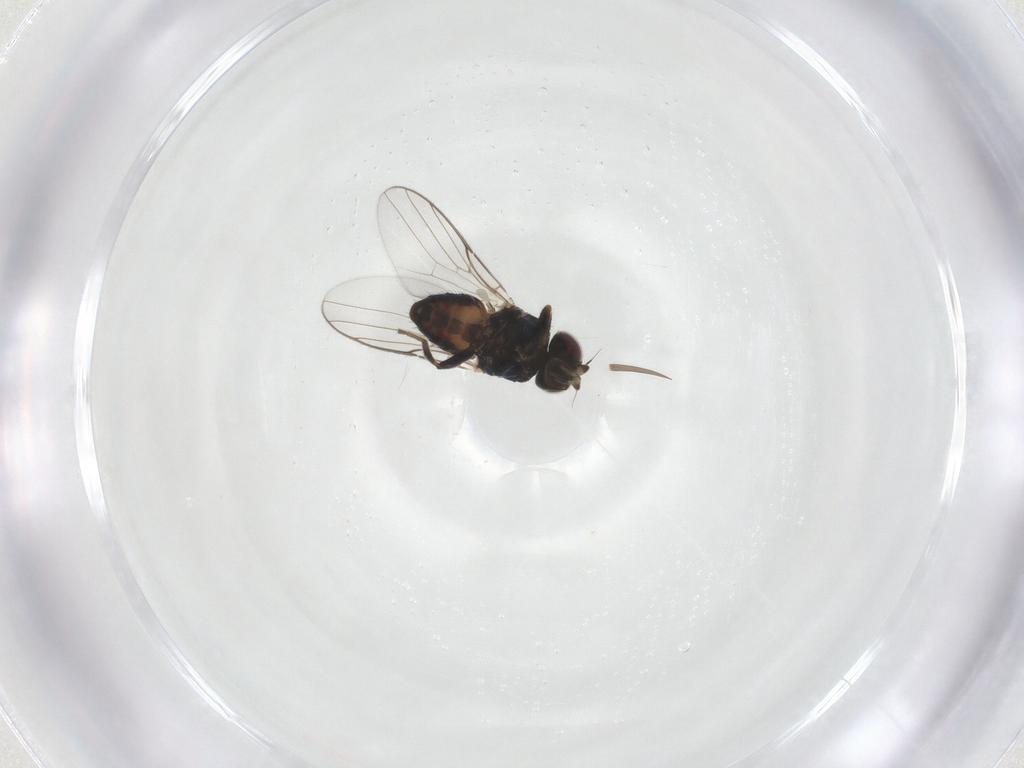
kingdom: Animalia
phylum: Arthropoda
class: Insecta
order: Diptera
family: Chloropidae
